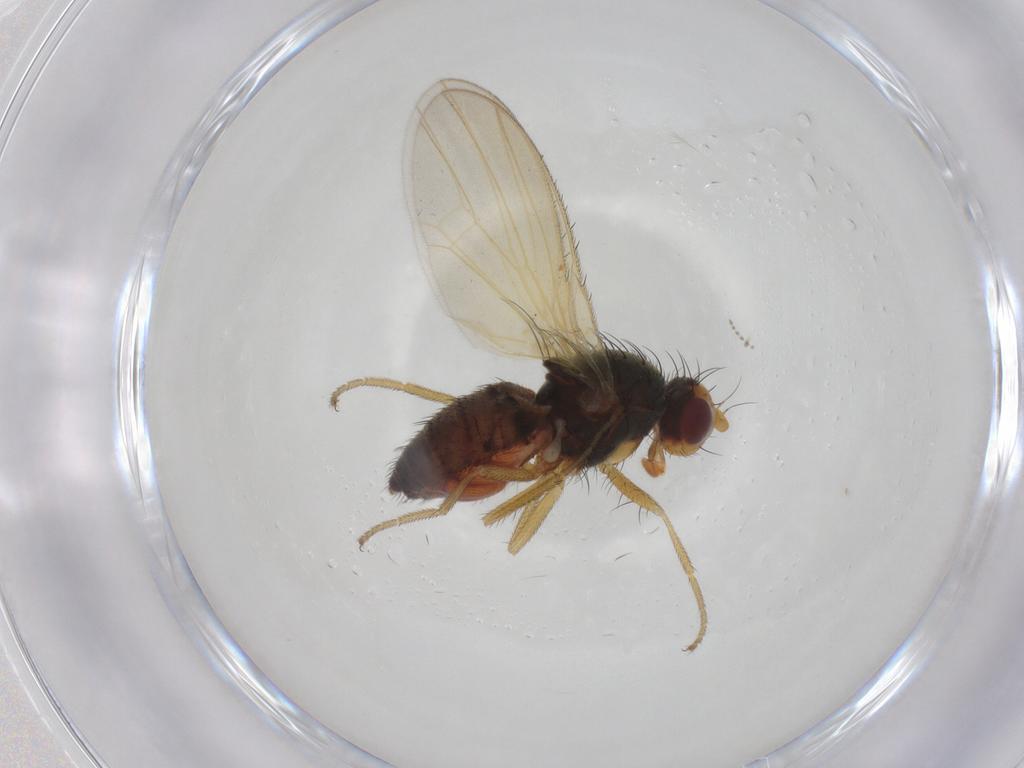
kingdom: Animalia
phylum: Arthropoda
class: Insecta
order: Diptera
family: Heleomyzidae
